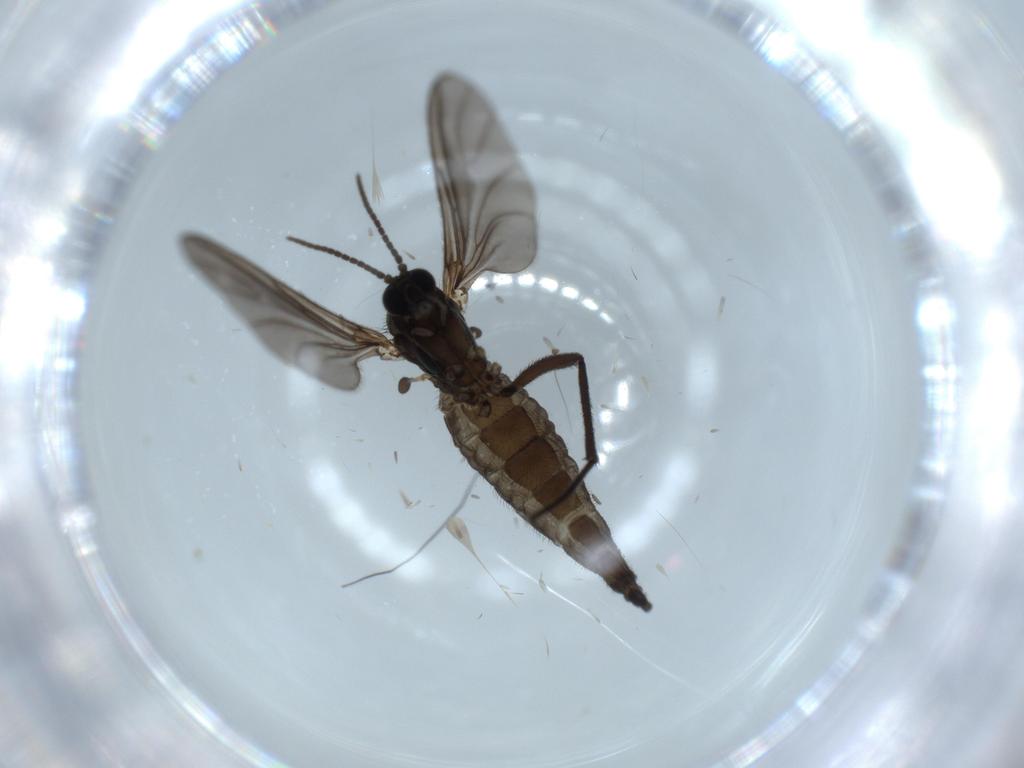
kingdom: Animalia
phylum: Arthropoda
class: Insecta
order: Diptera
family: Sciaridae
